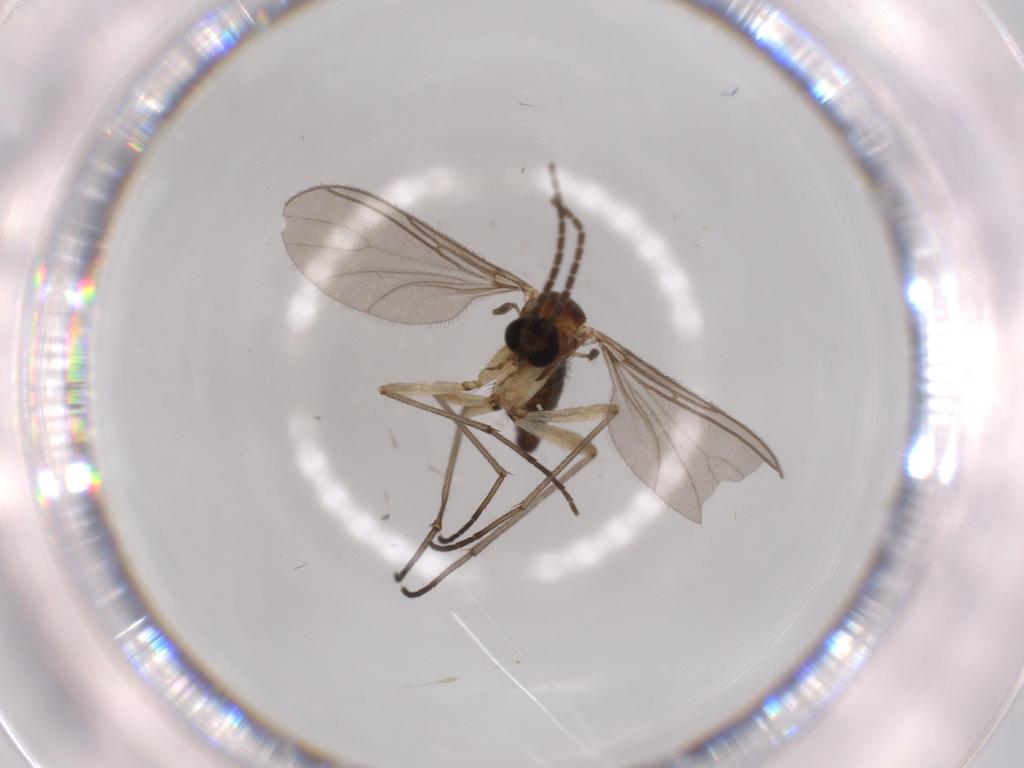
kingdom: Animalia
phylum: Arthropoda
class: Insecta
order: Diptera
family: Sciaridae
